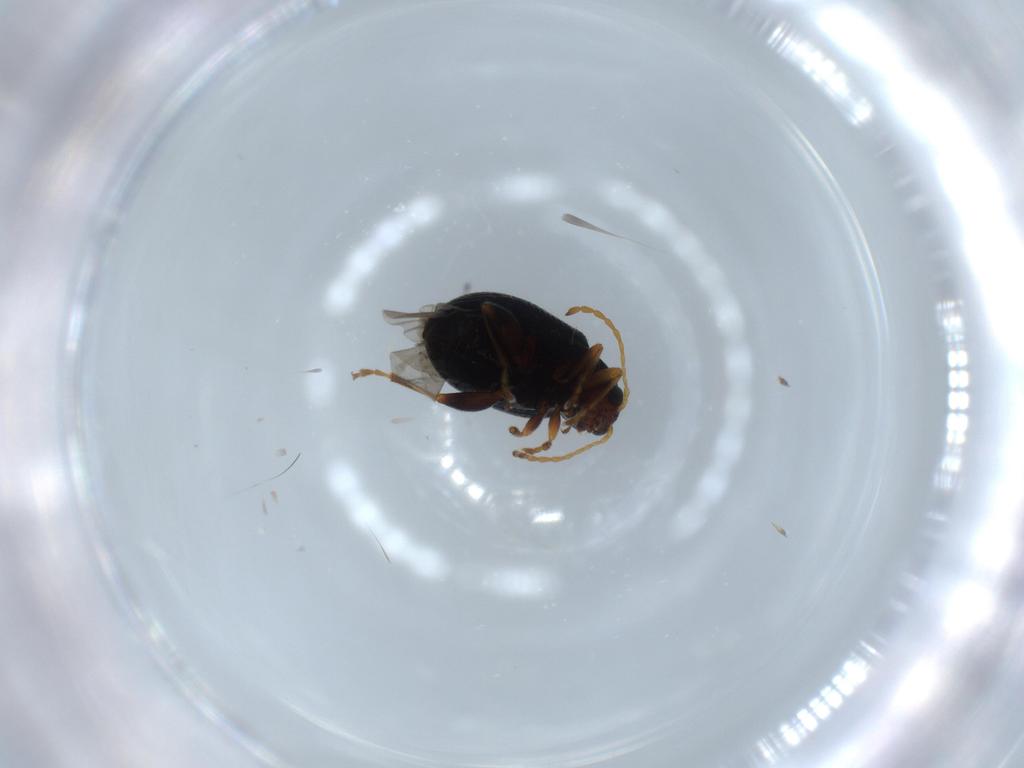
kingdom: Animalia
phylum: Arthropoda
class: Insecta
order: Coleoptera
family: Chrysomelidae
